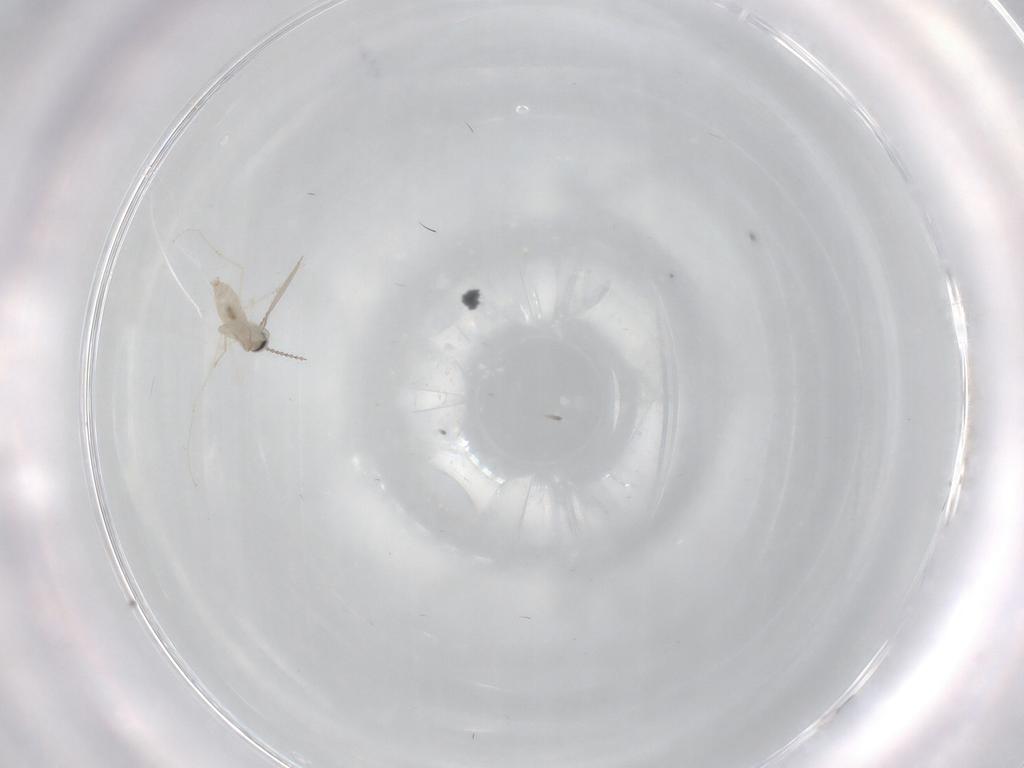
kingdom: Animalia
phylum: Arthropoda
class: Insecta
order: Diptera
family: Cecidomyiidae
